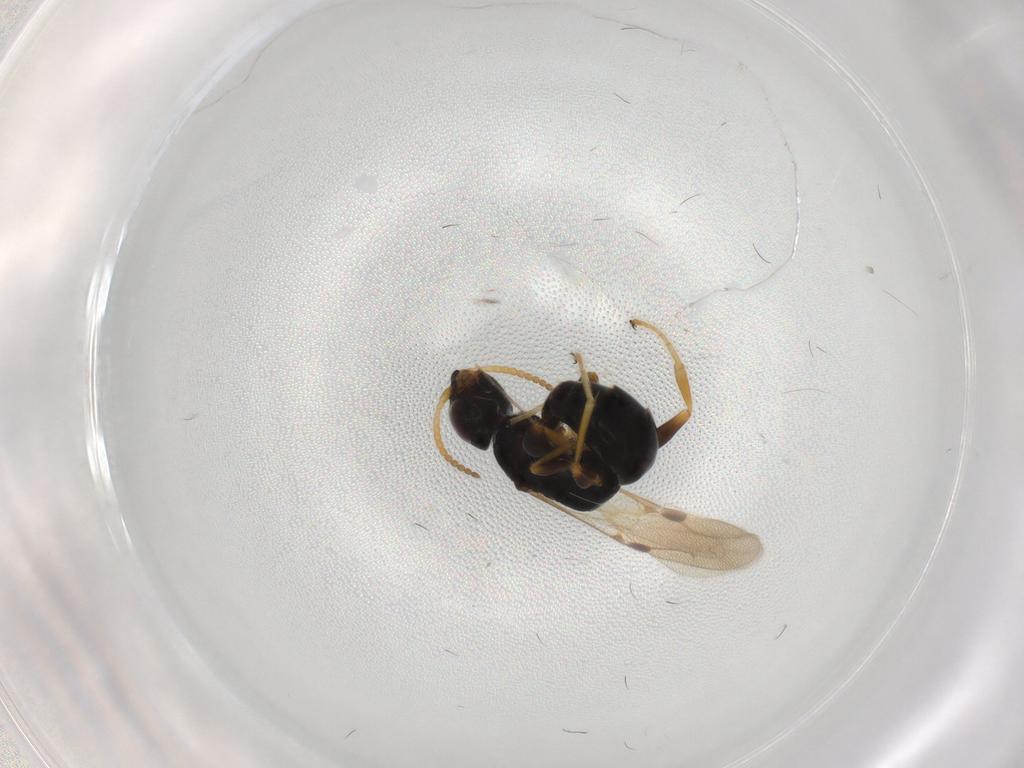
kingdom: Animalia
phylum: Arthropoda
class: Insecta
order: Hymenoptera
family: Bethylidae
